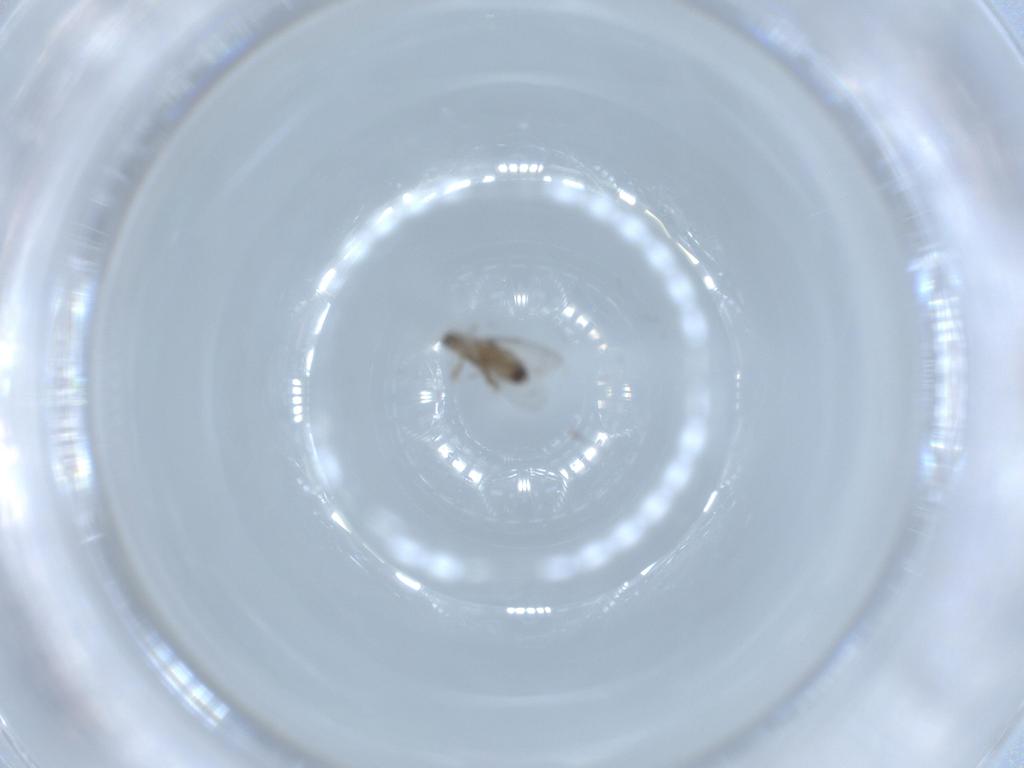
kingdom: Animalia
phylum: Arthropoda
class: Insecta
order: Diptera
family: Phoridae
